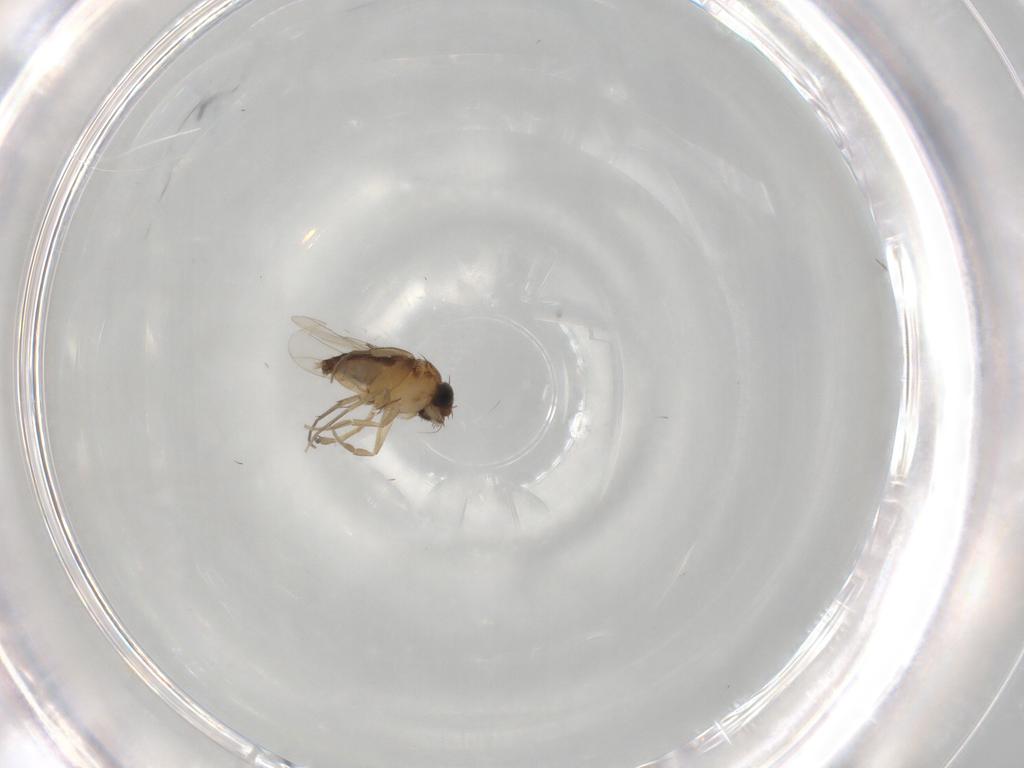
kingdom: Animalia
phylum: Arthropoda
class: Insecta
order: Diptera
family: Phoridae
